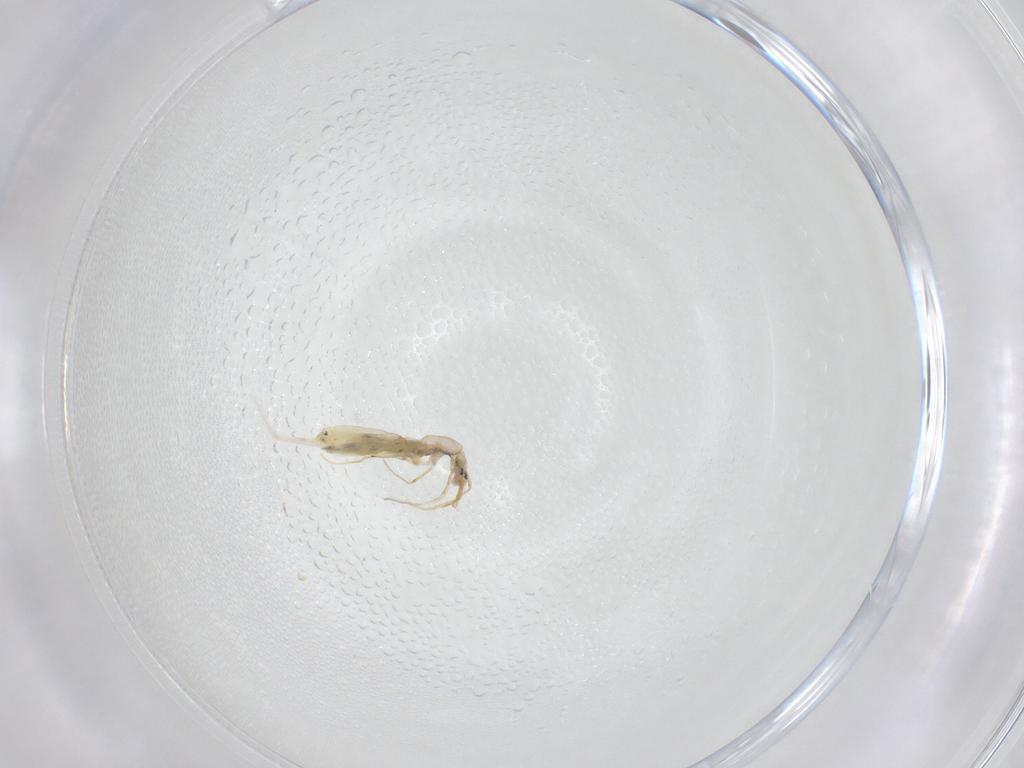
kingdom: Animalia
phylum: Arthropoda
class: Collembola
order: Entomobryomorpha
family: Entomobryidae
